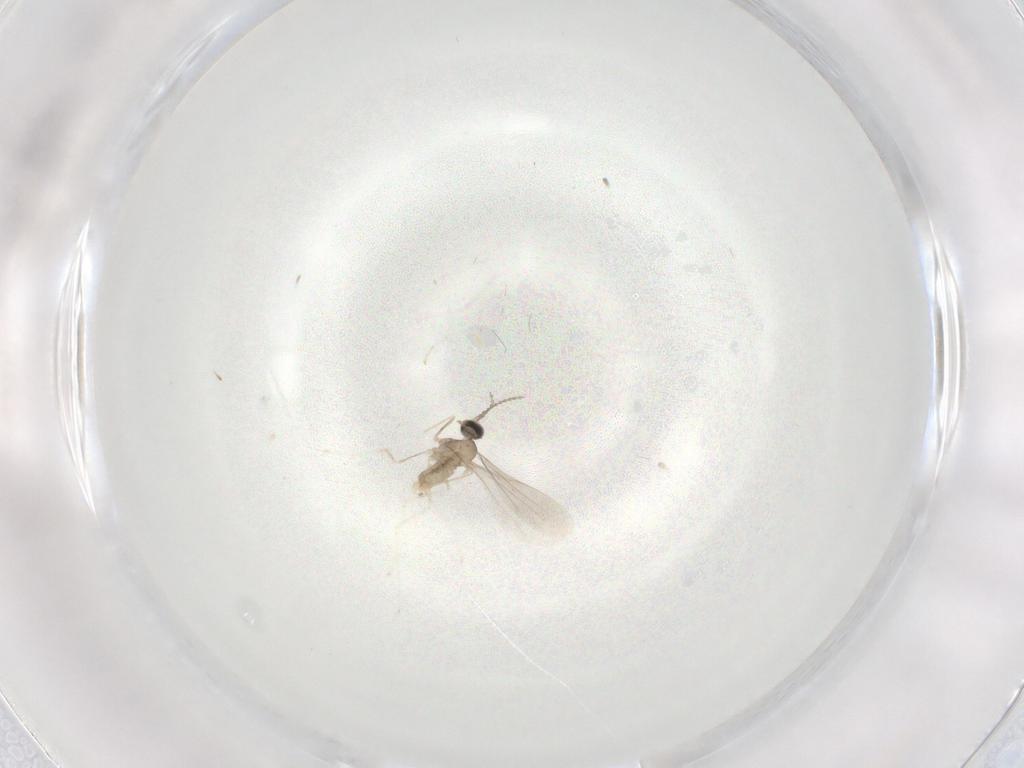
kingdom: Animalia
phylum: Arthropoda
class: Insecta
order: Diptera
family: Cecidomyiidae
